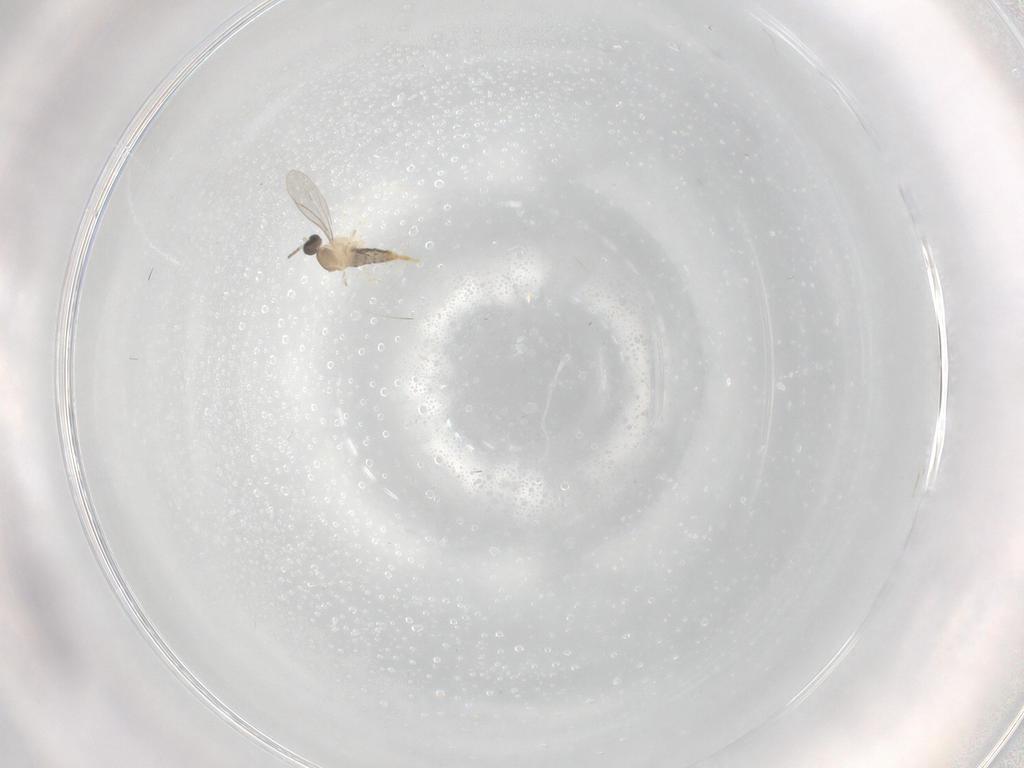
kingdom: Animalia
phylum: Arthropoda
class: Insecta
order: Diptera
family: Cecidomyiidae
